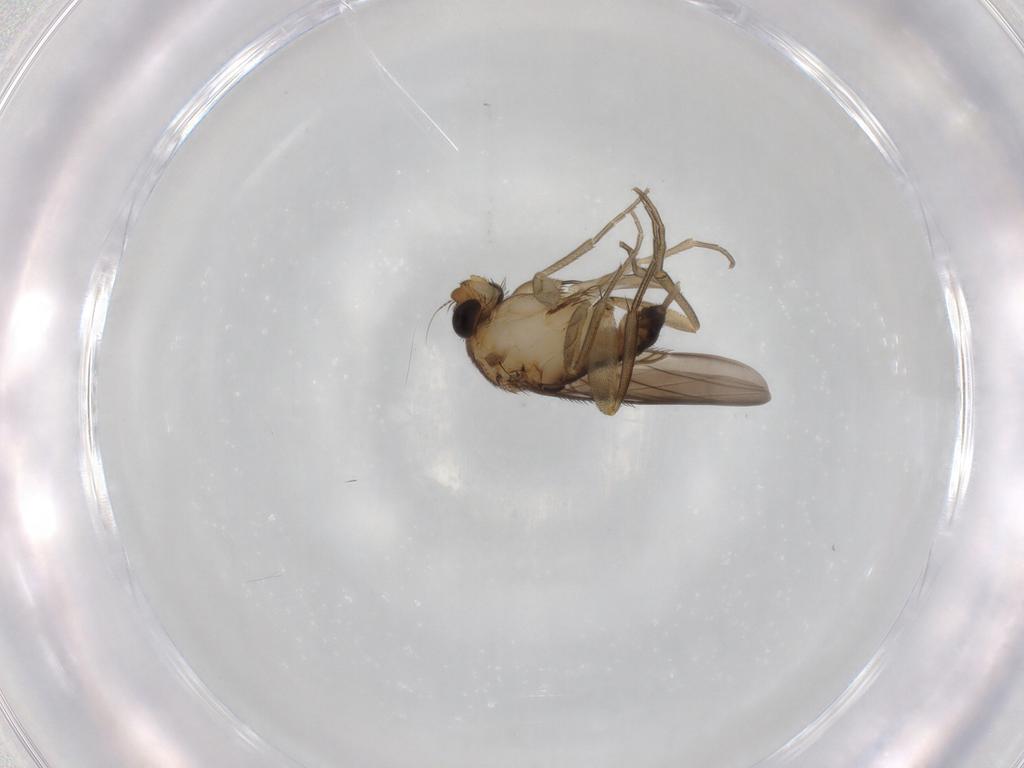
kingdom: Animalia
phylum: Arthropoda
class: Insecta
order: Diptera
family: Phoridae
